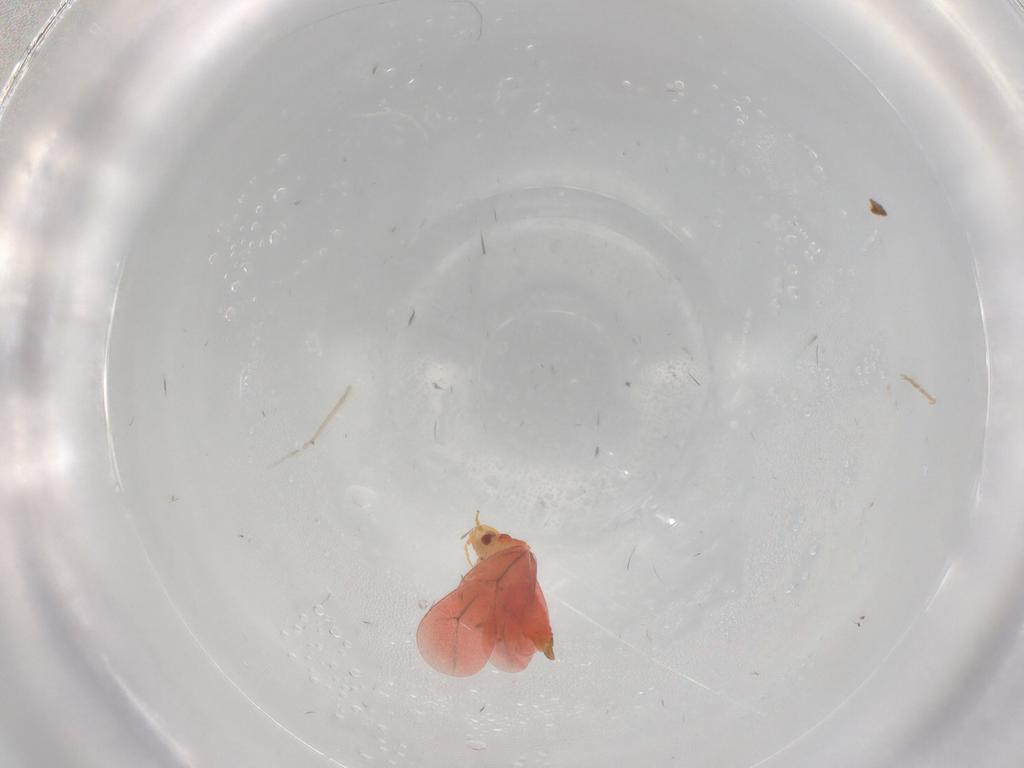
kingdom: Animalia
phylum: Arthropoda
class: Insecta
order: Hemiptera
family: Aleyrodidae
